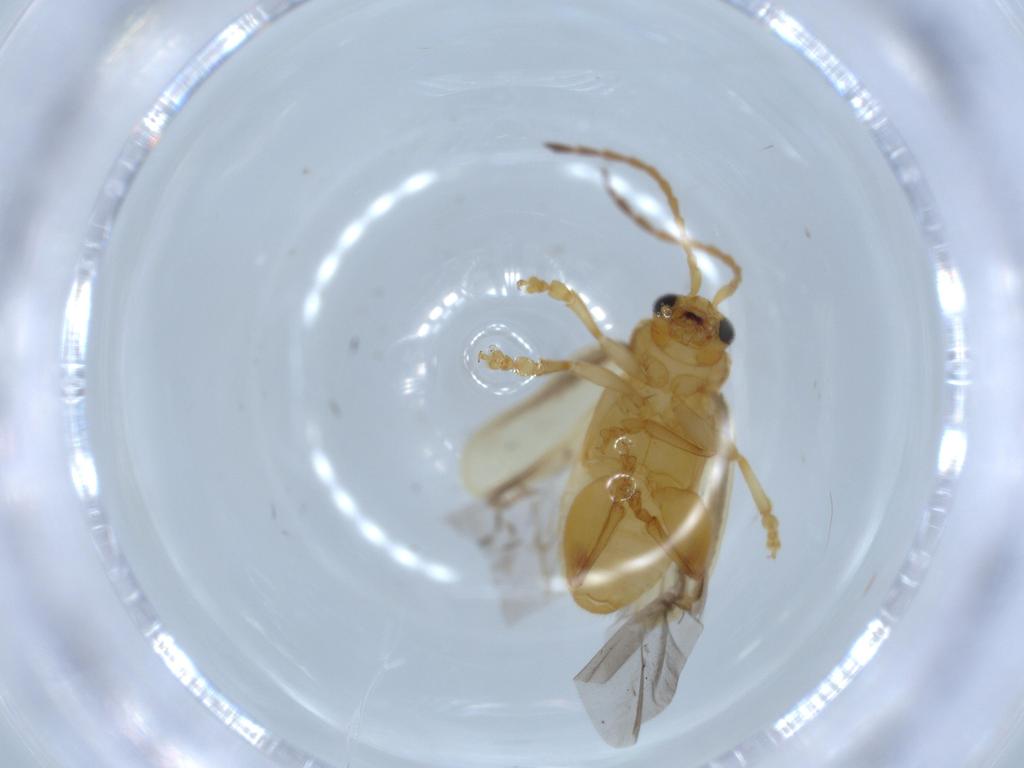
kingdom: Animalia
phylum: Arthropoda
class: Insecta
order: Coleoptera
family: Chrysomelidae
